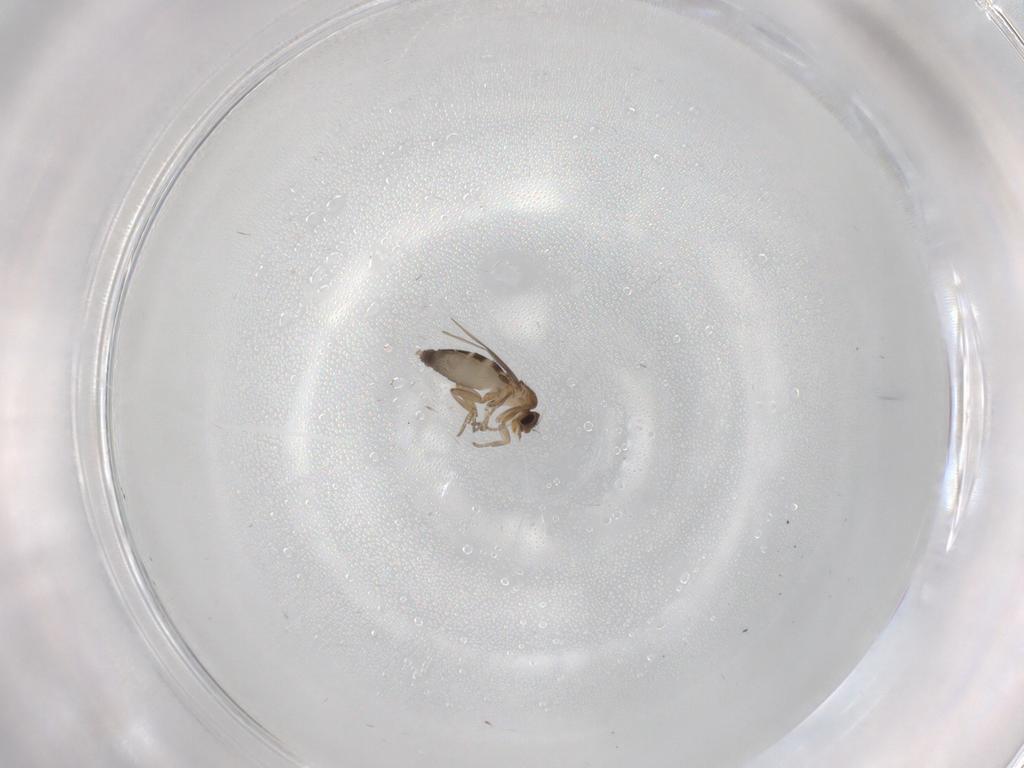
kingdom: Animalia
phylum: Arthropoda
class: Insecta
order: Diptera
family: Phoridae
